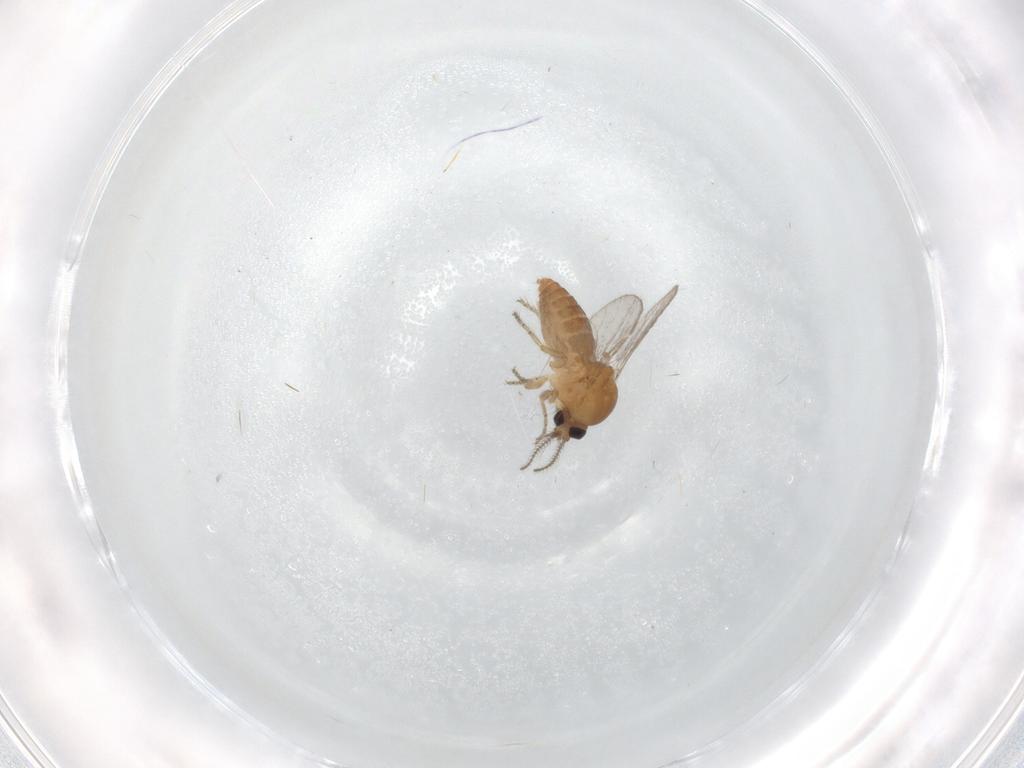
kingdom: Animalia
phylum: Arthropoda
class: Insecta
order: Diptera
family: Ceratopogonidae
